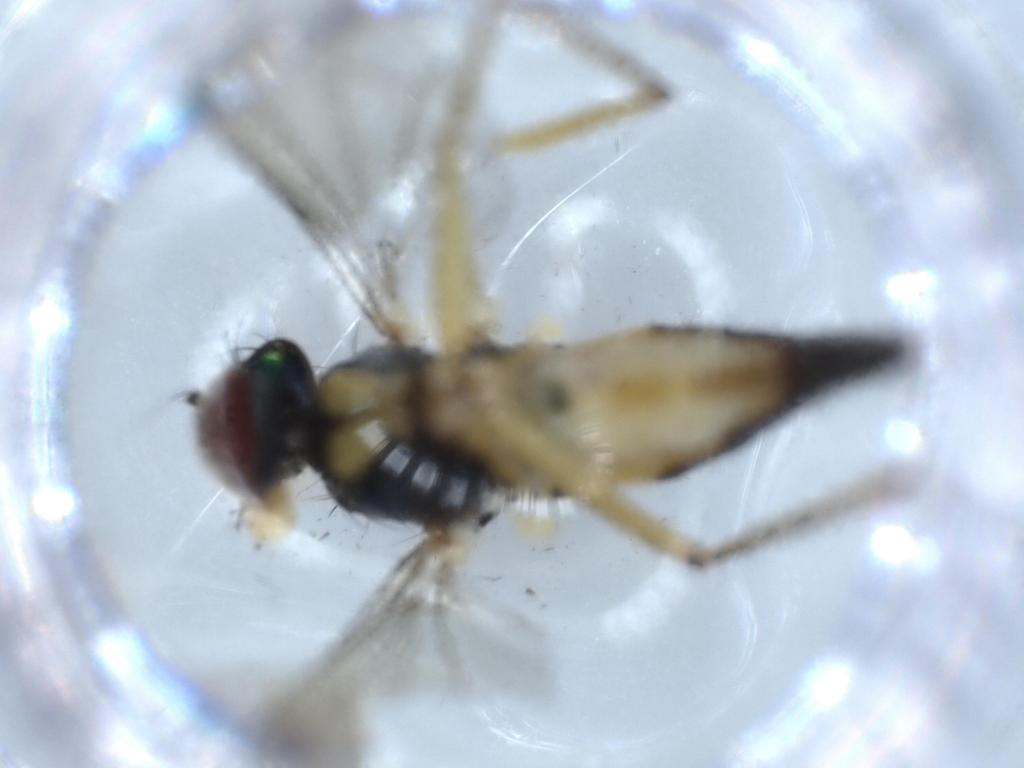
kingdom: Animalia
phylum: Arthropoda
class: Insecta
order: Diptera
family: Dolichopodidae
